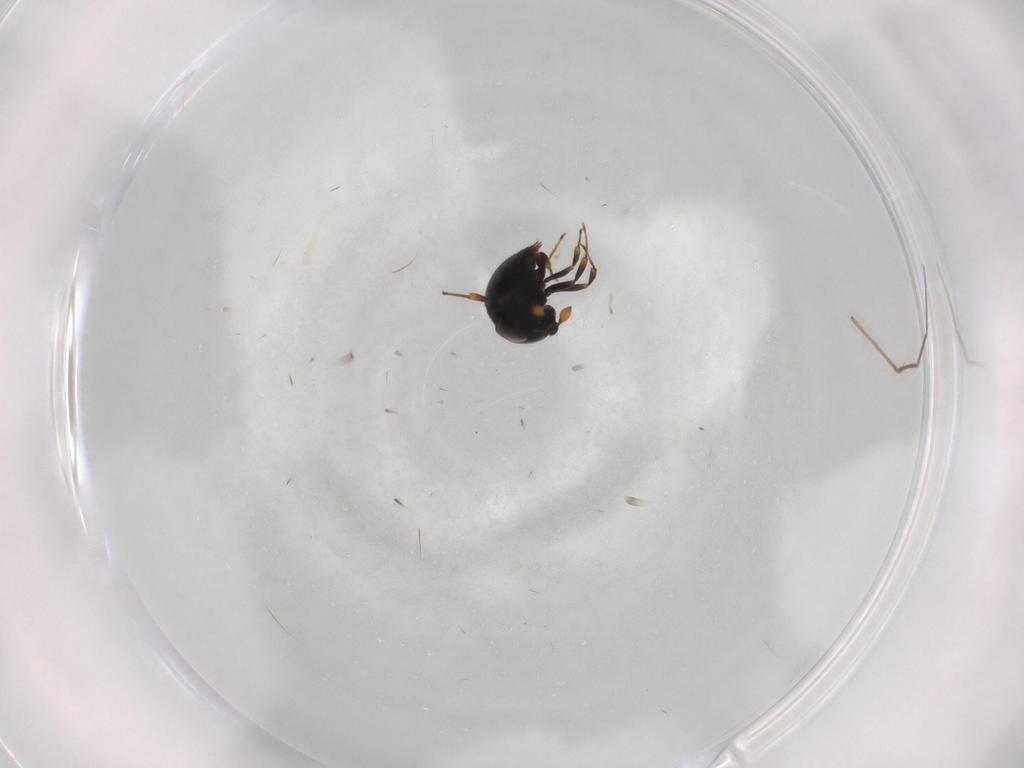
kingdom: Animalia
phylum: Arthropoda
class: Insecta
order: Hymenoptera
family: Scelionidae
